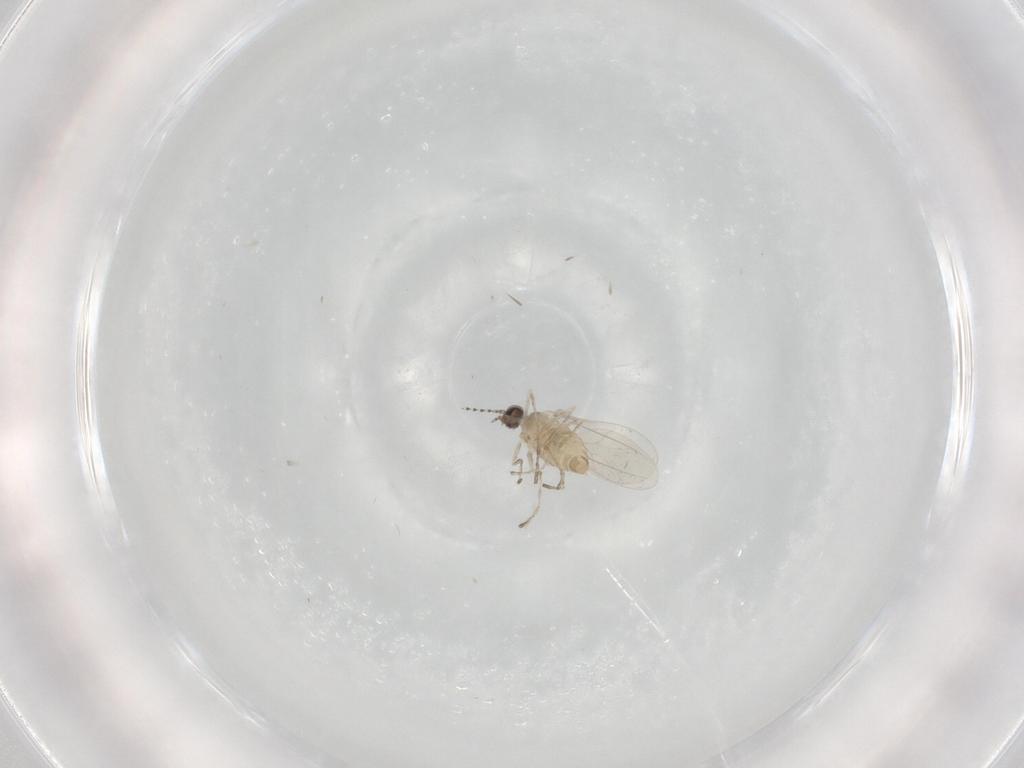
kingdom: Animalia
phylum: Arthropoda
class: Insecta
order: Diptera
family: Cecidomyiidae
